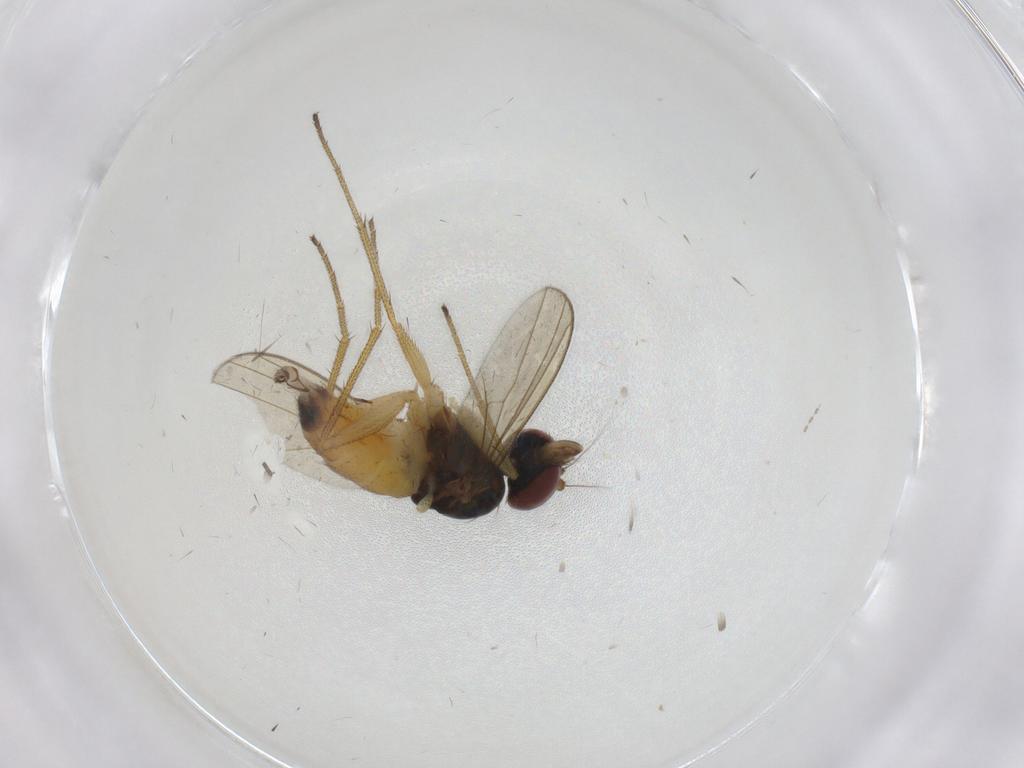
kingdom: Animalia
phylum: Arthropoda
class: Insecta
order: Diptera
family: Dolichopodidae
